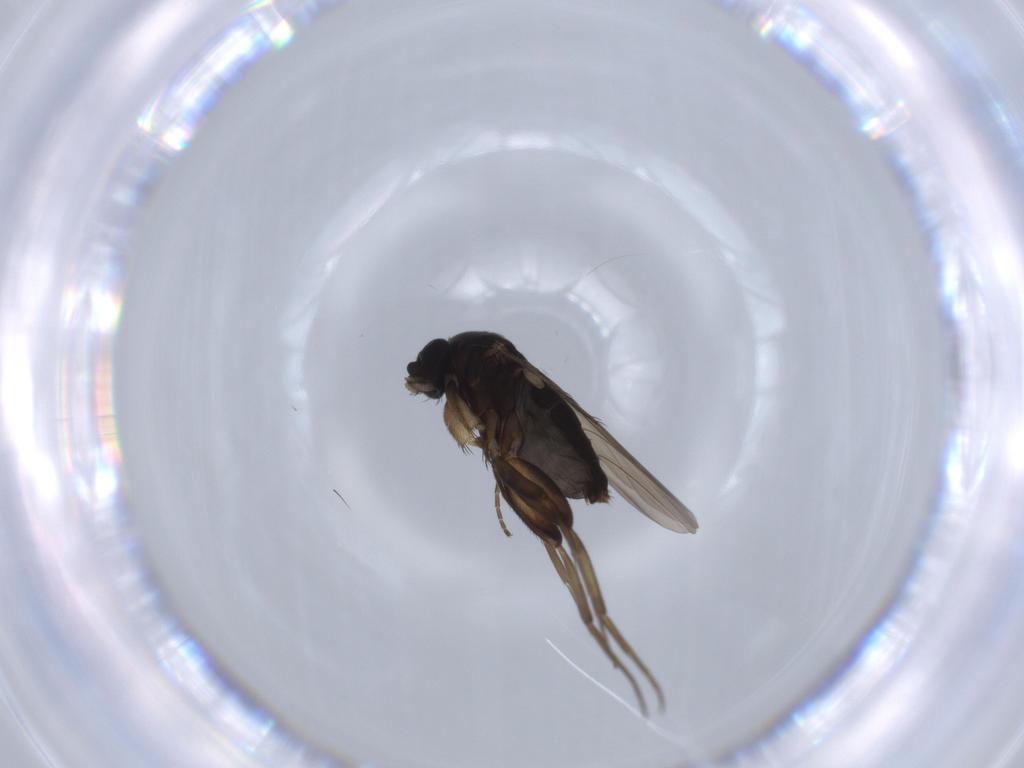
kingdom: Animalia
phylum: Arthropoda
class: Insecta
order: Diptera
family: Phoridae
